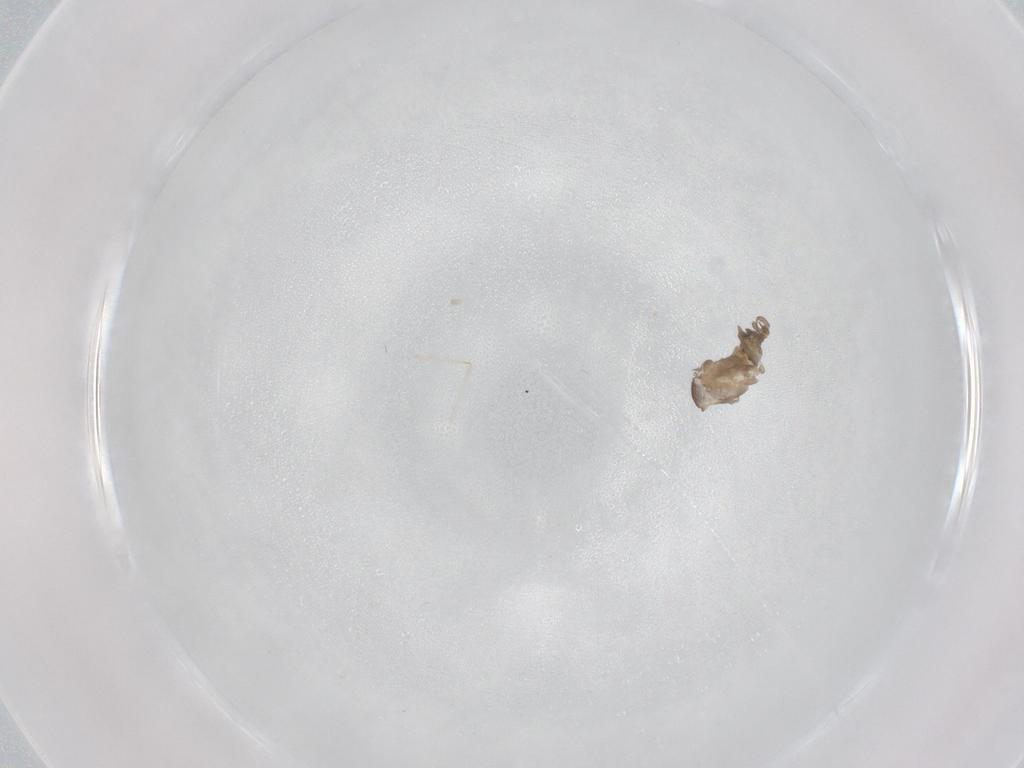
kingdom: Animalia
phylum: Arthropoda
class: Insecta
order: Diptera
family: Cecidomyiidae
